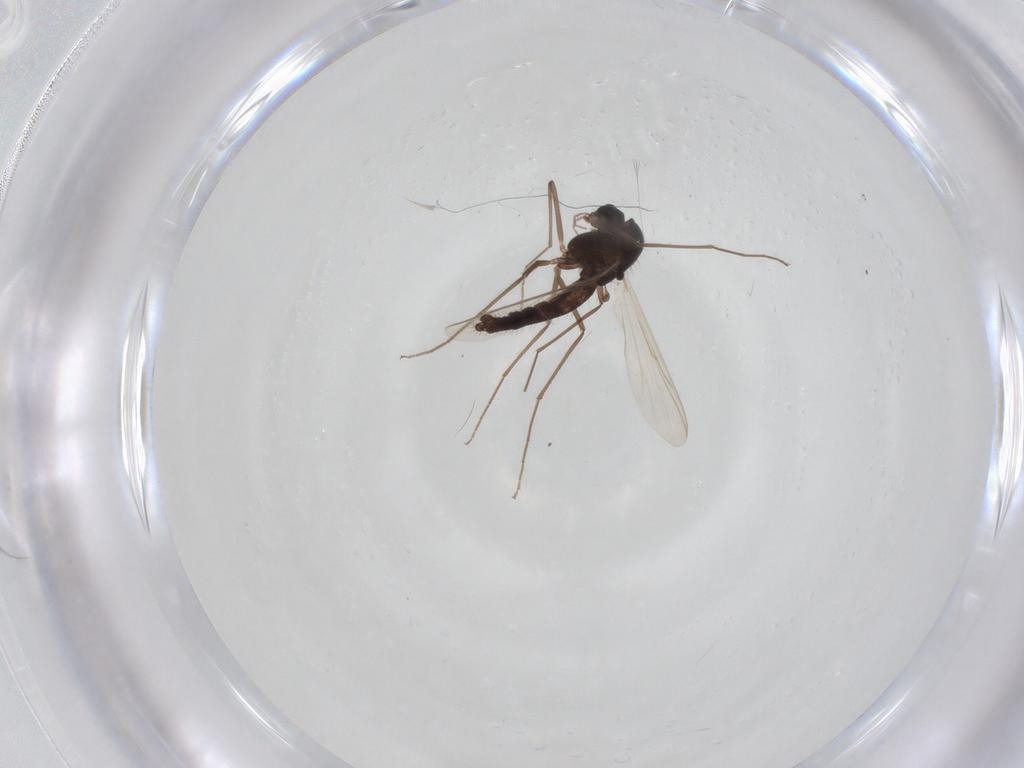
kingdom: Animalia
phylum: Arthropoda
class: Insecta
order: Diptera
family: Chironomidae
